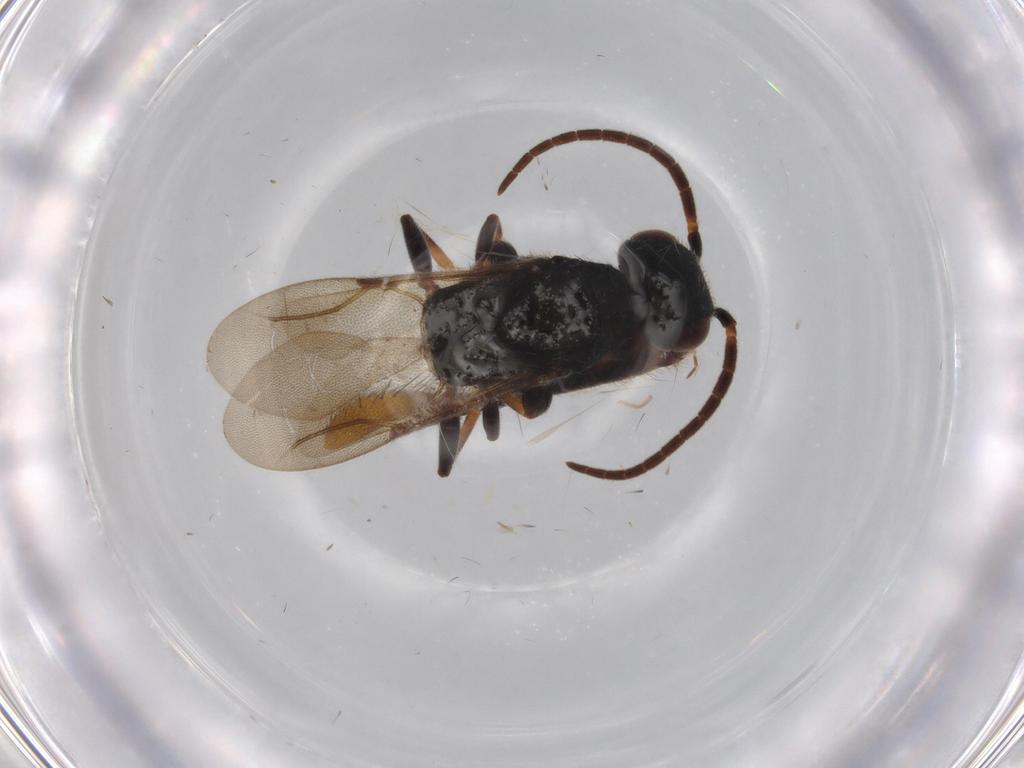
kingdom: Animalia
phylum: Arthropoda
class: Insecta
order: Hymenoptera
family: Bethylidae
